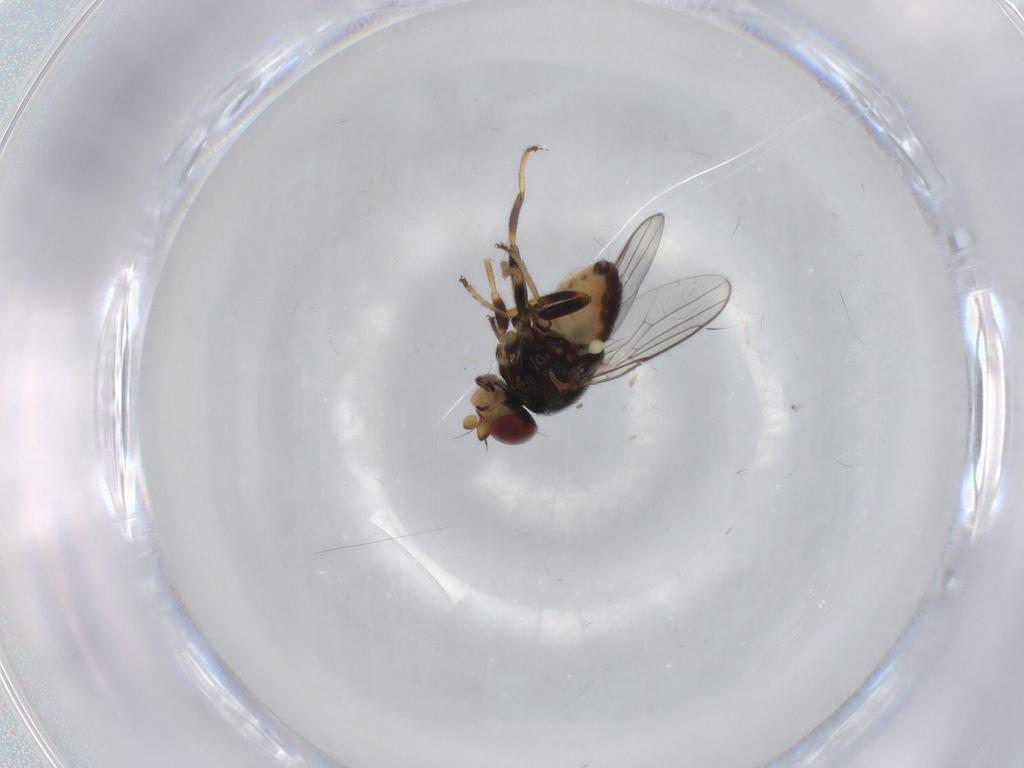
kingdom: Animalia
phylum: Arthropoda
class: Insecta
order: Diptera
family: Chloropidae
